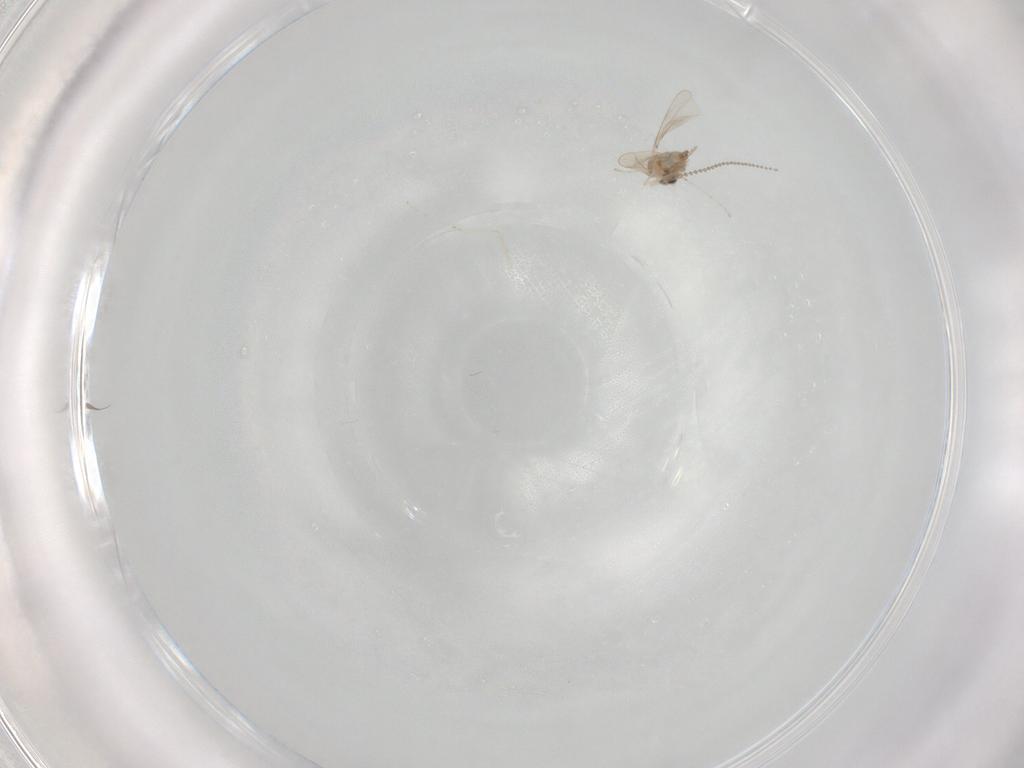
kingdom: Animalia
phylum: Arthropoda
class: Insecta
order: Diptera
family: Cecidomyiidae
